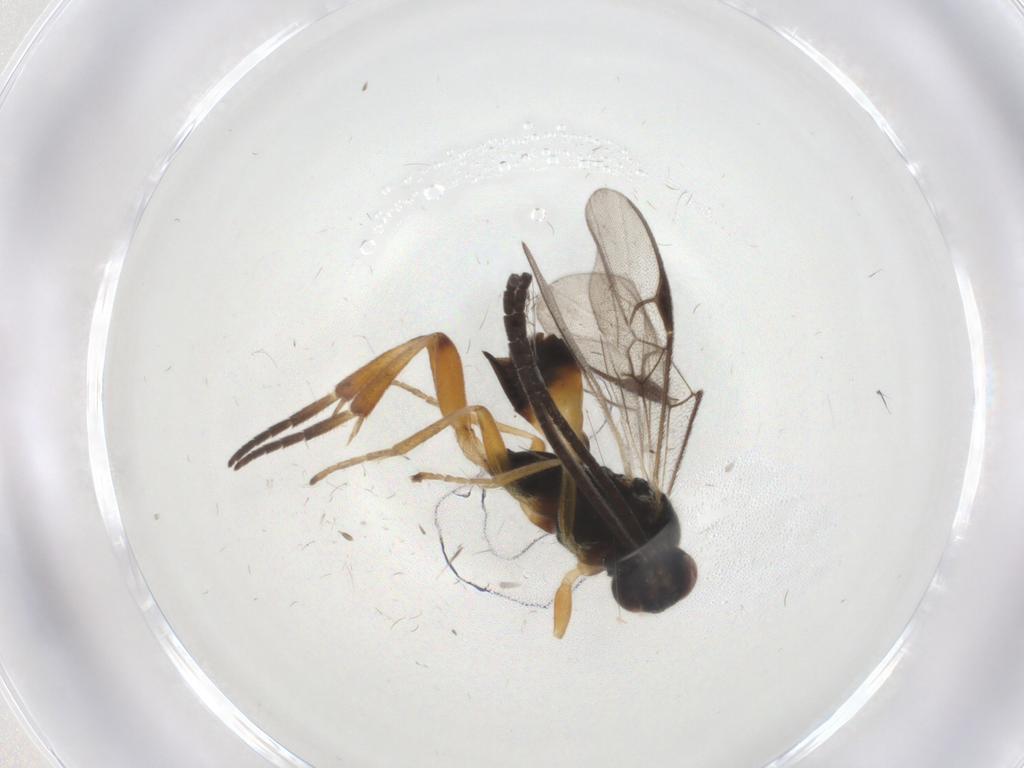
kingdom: Animalia
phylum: Arthropoda
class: Insecta
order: Hymenoptera
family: Braconidae
